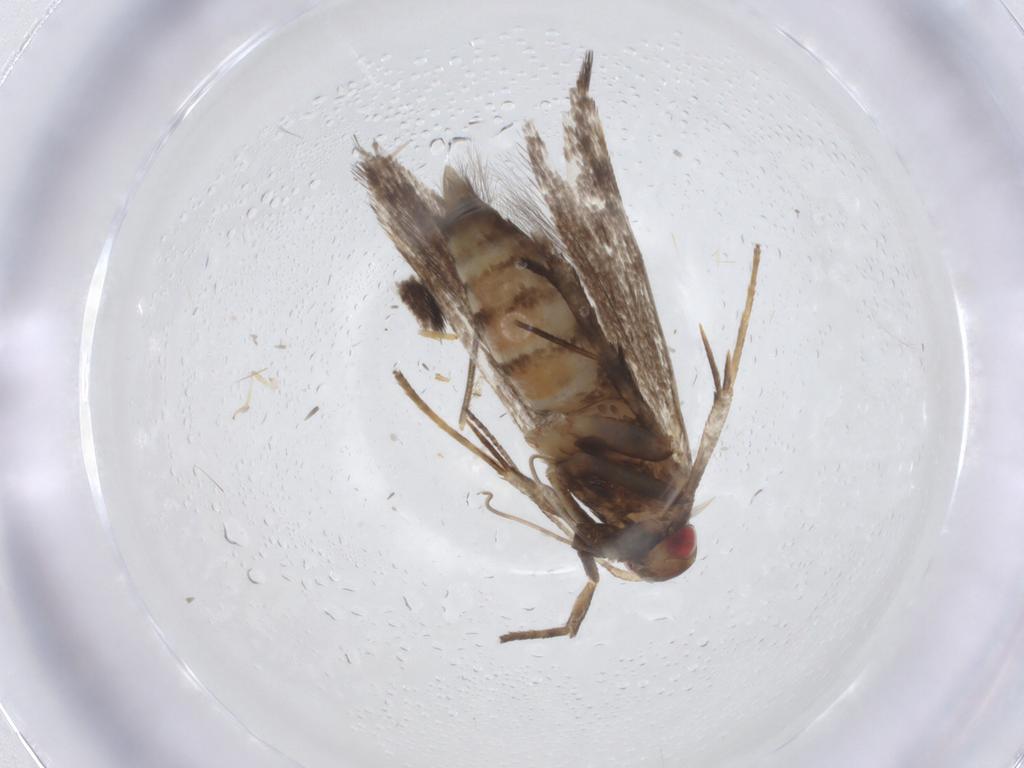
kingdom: Animalia
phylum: Arthropoda
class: Insecta
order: Lepidoptera
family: Gelechiidae
